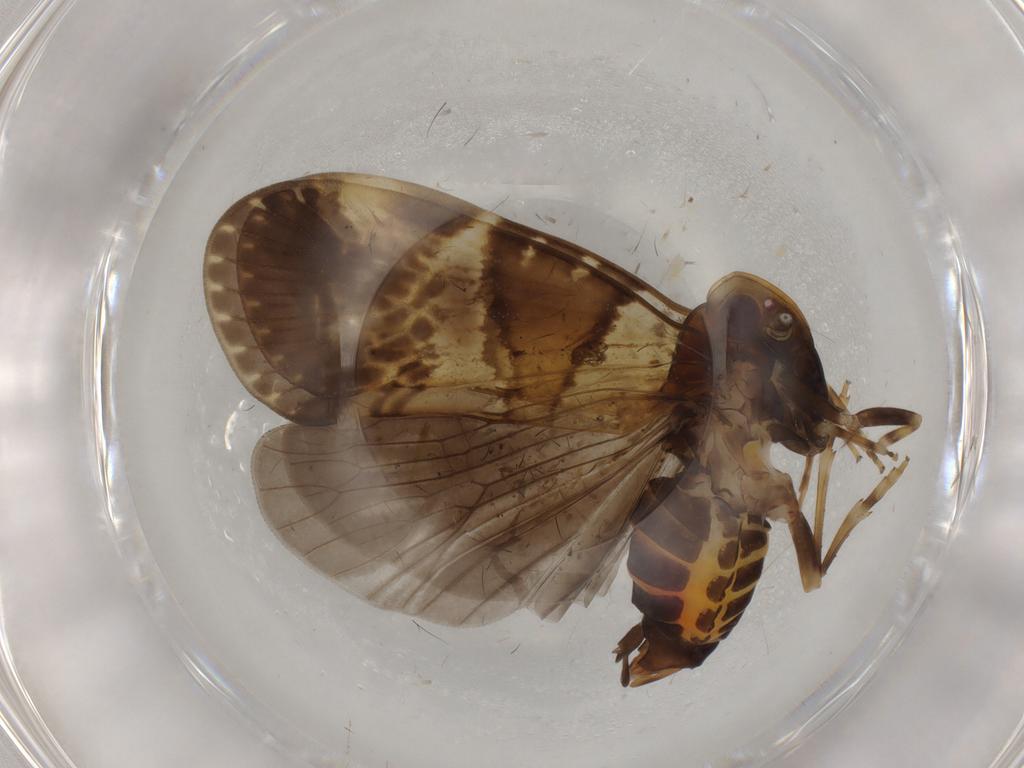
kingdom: Animalia
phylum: Arthropoda
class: Insecta
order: Hemiptera
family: Cixiidae
